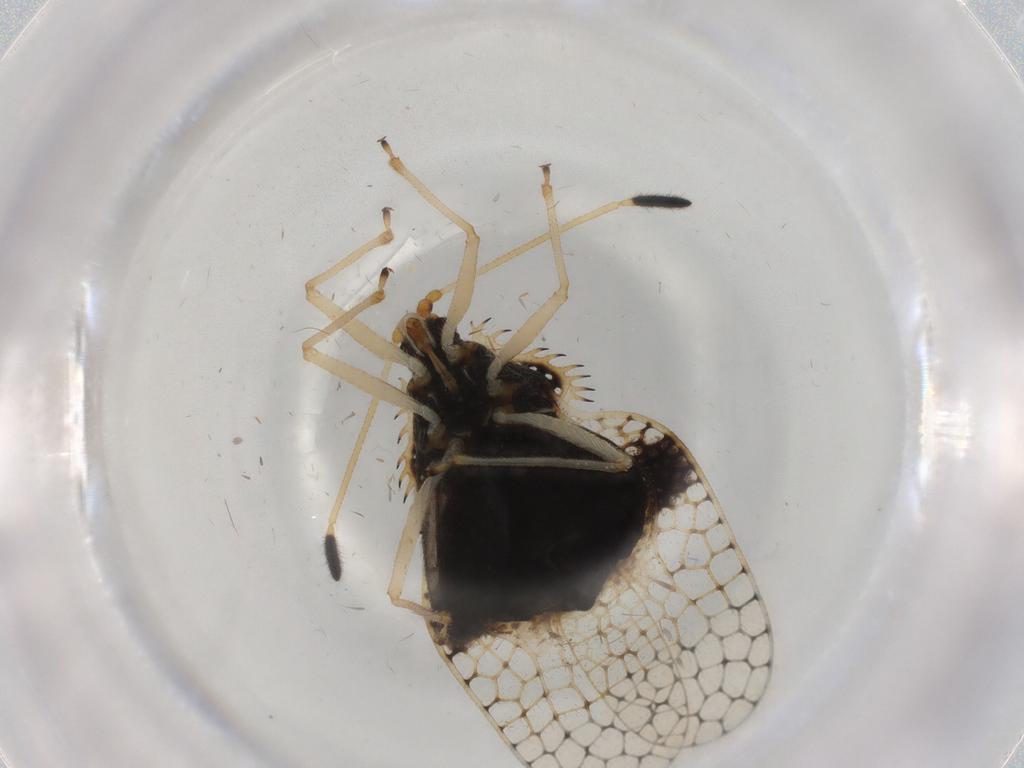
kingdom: Animalia
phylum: Arthropoda
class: Insecta
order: Hemiptera
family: Tingidae
